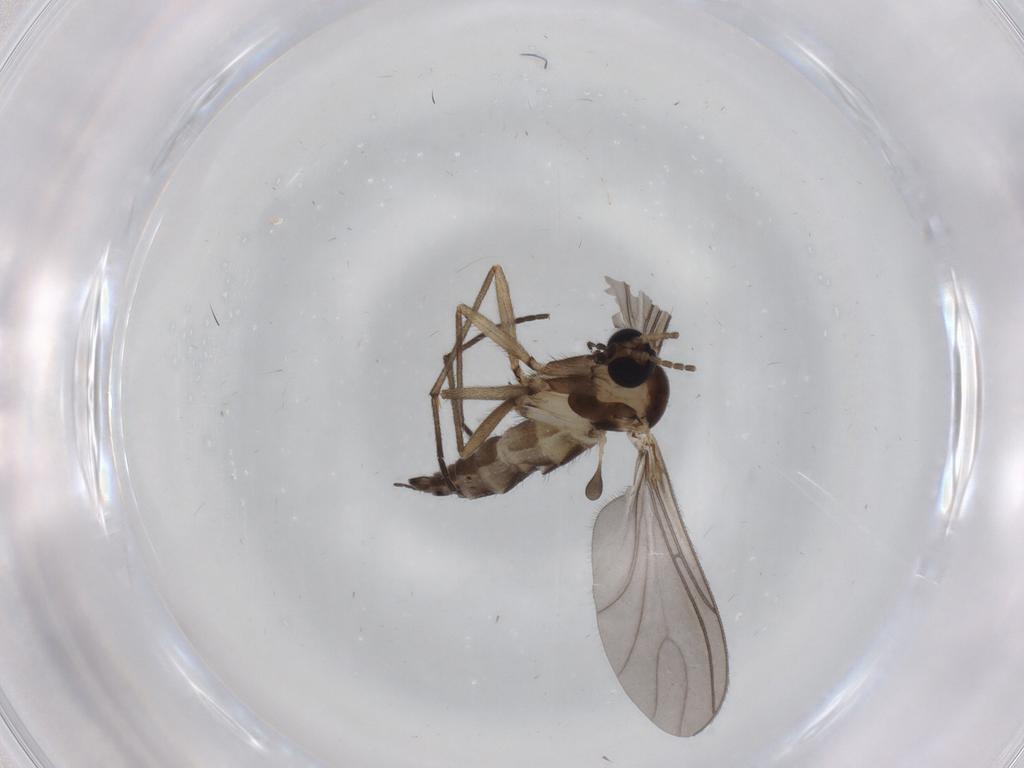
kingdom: Animalia
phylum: Arthropoda
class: Insecta
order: Diptera
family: Sciaridae
